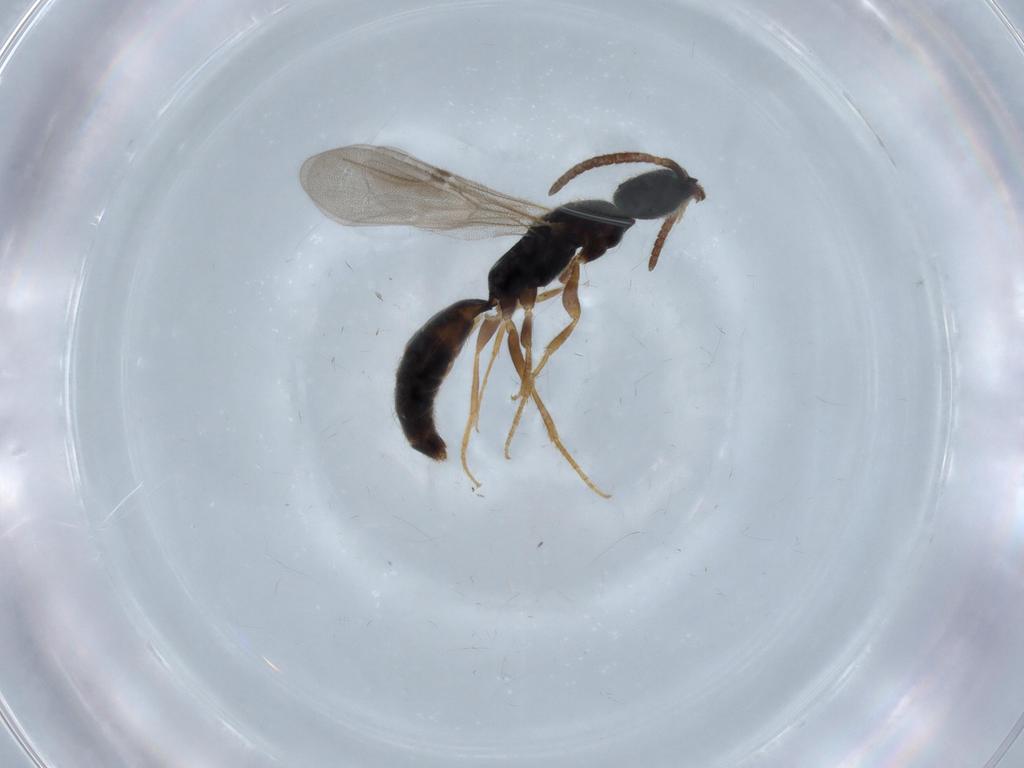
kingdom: Animalia
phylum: Arthropoda
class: Insecta
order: Hymenoptera
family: Bethylidae
